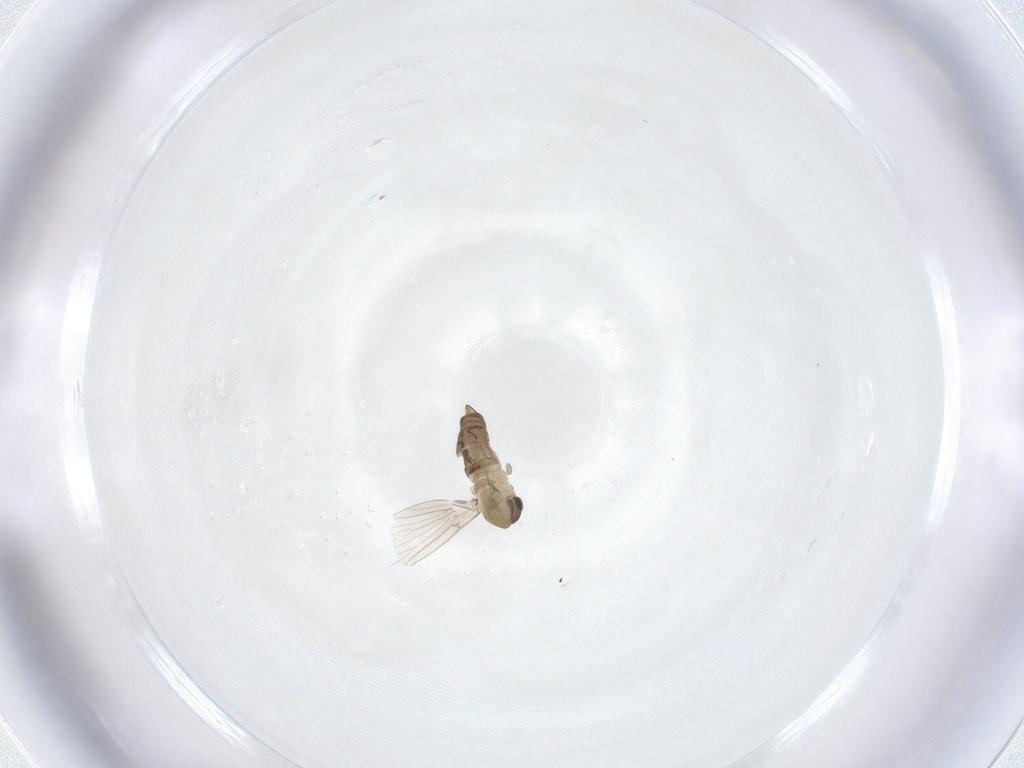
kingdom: Animalia
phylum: Arthropoda
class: Insecta
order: Diptera
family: Psychodidae
